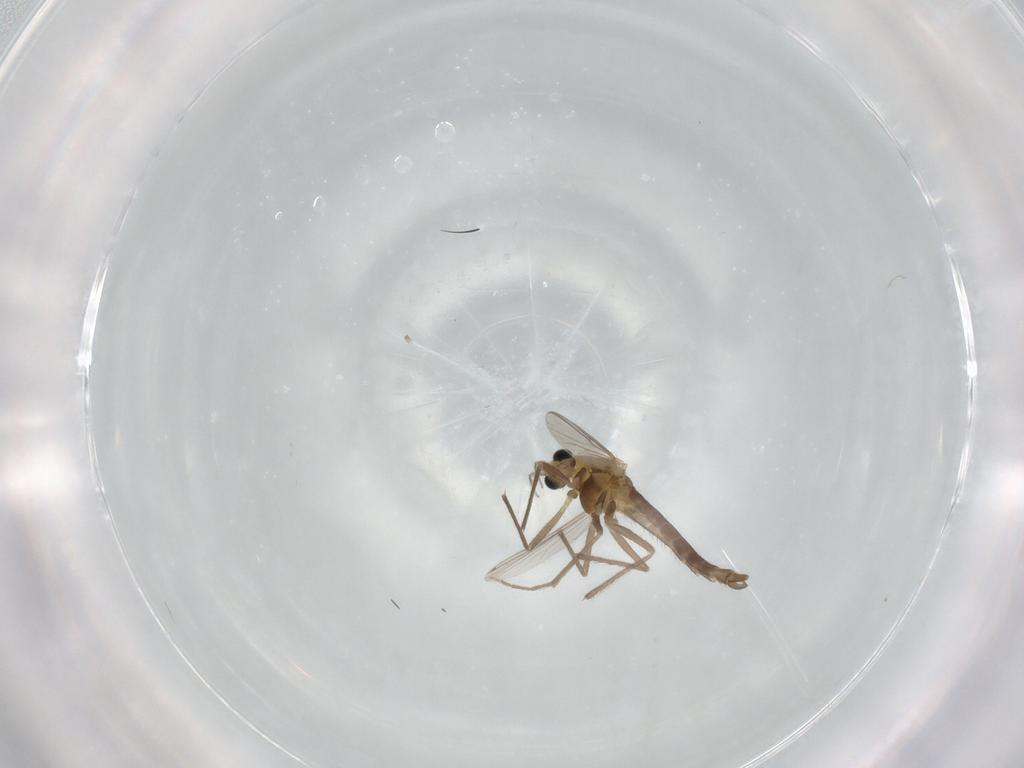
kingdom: Animalia
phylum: Arthropoda
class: Insecta
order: Diptera
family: Chironomidae
